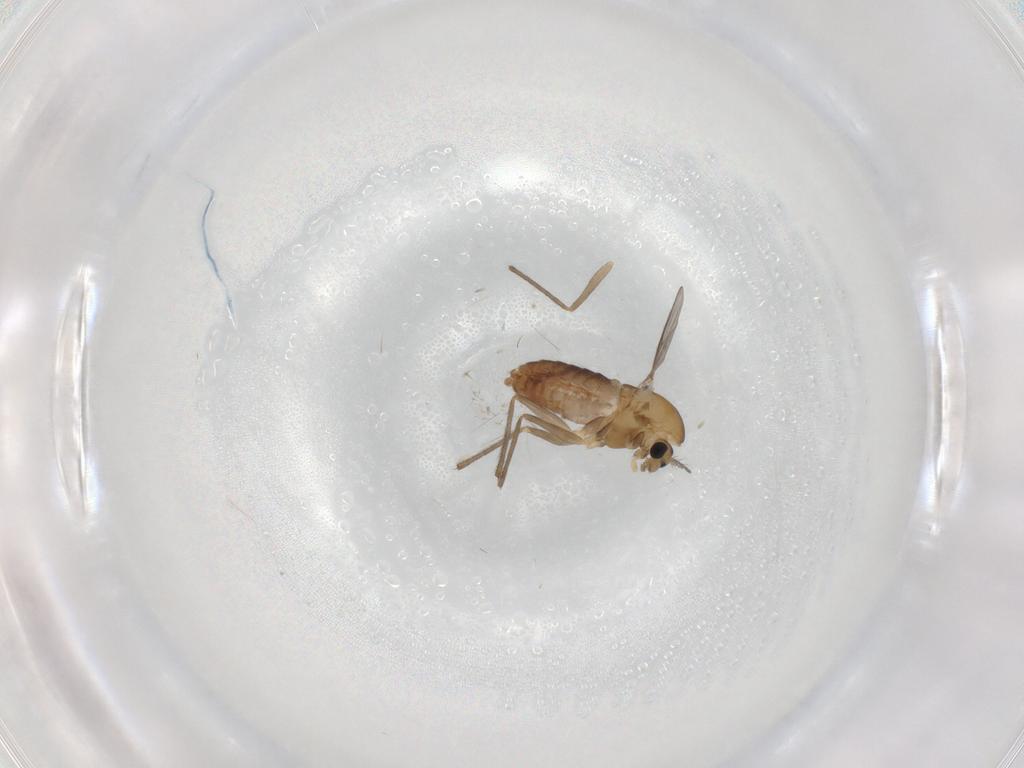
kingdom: Animalia
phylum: Arthropoda
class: Insecta
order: Diptera
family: Chironomidae
